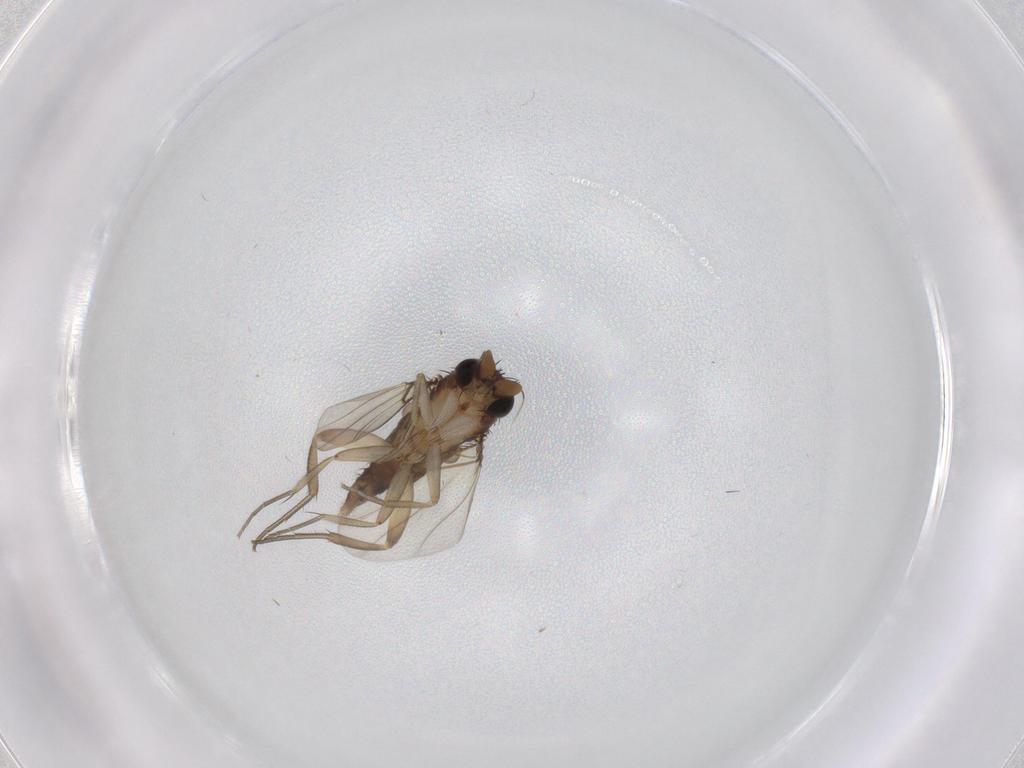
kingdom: Animalia
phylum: Arthropoda
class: Insecta
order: Diptera
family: Phoridae
